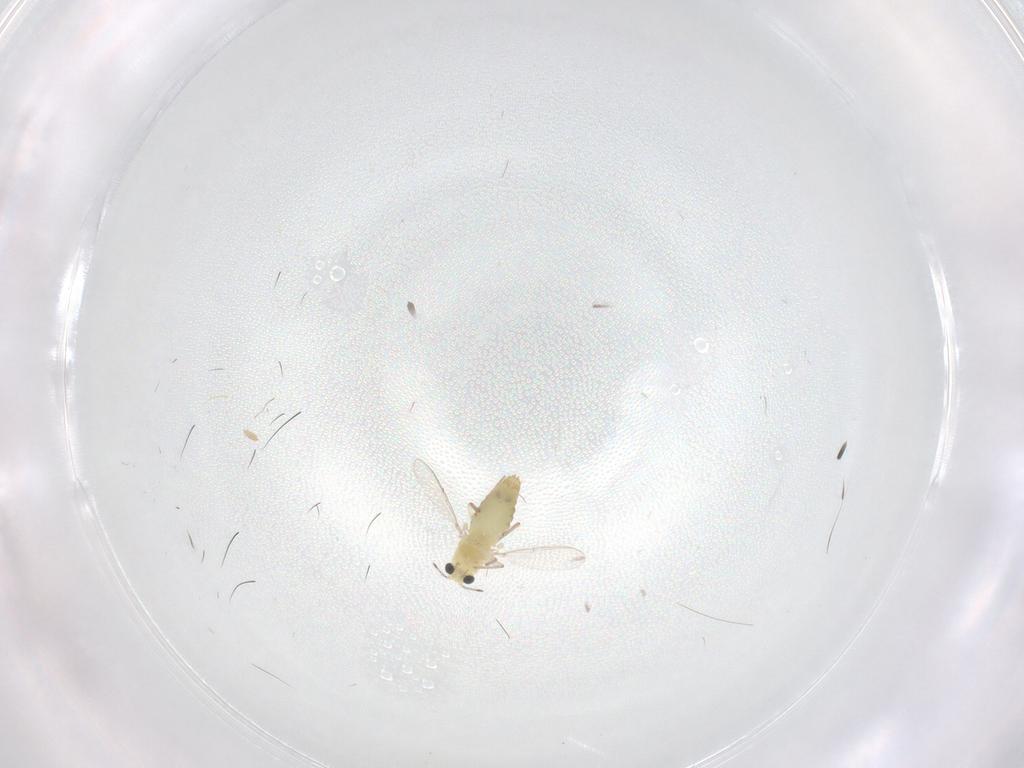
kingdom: Animalia
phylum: Arthropoda
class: Insecta
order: Diptera
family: Chironomidae
